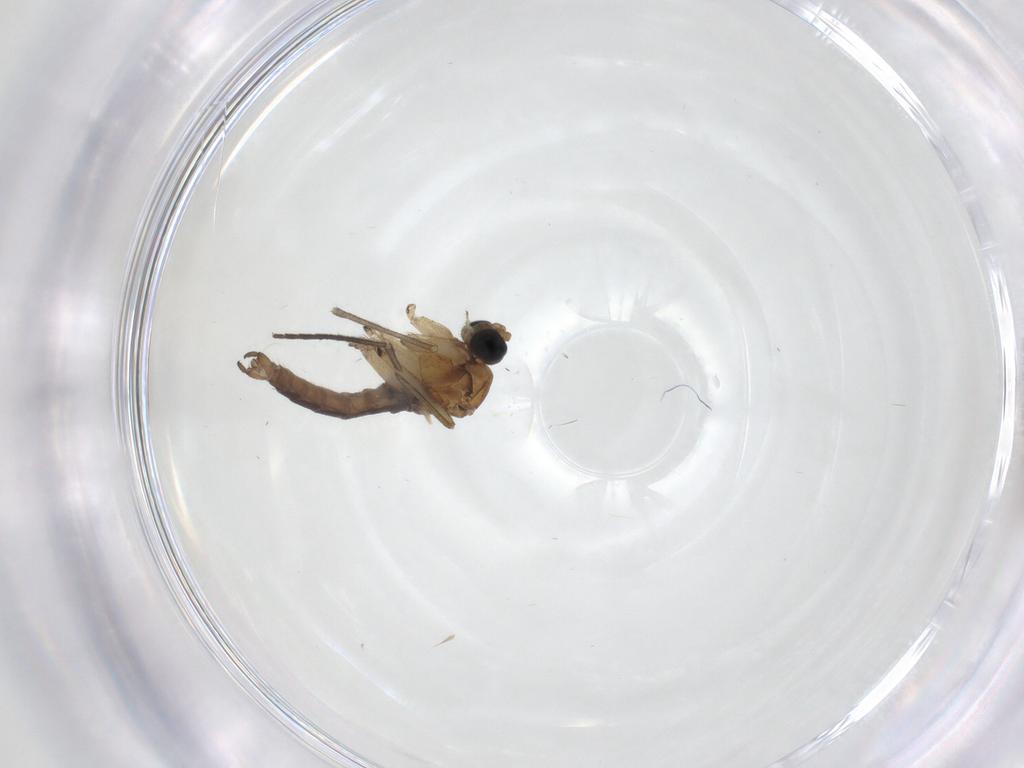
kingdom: Animalia
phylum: Arthropoda
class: Insecta
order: Diptera
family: Sciaridae
